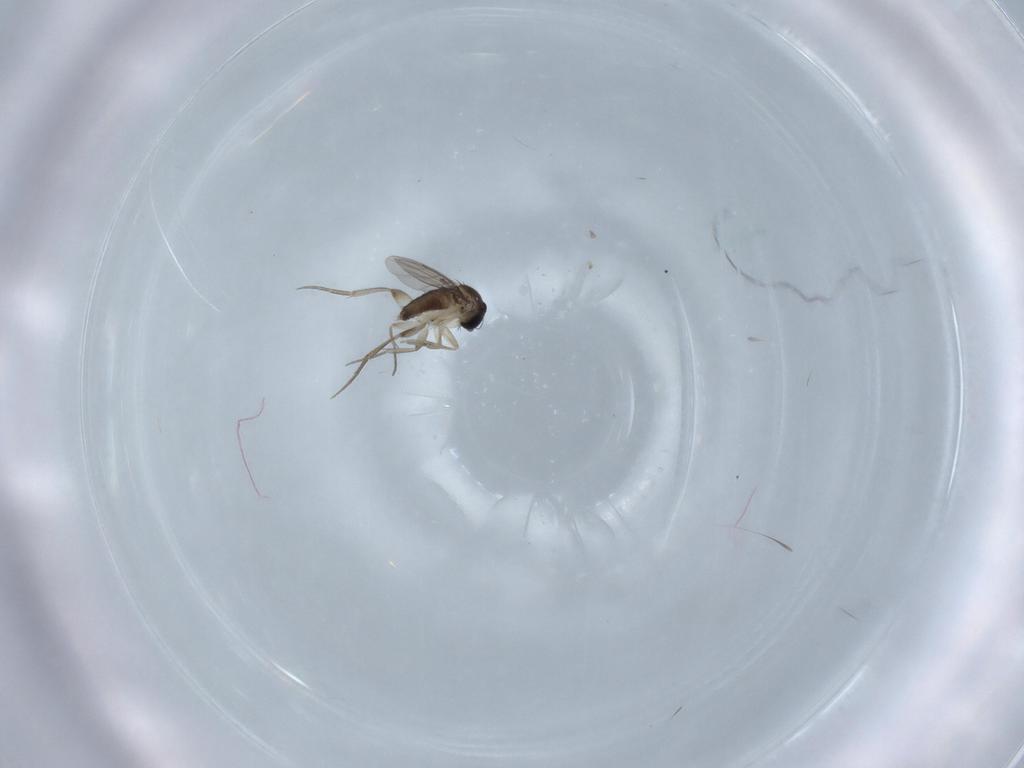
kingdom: Animalia
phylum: Arthropoda
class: Insecta
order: Diptera
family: Phoridae
